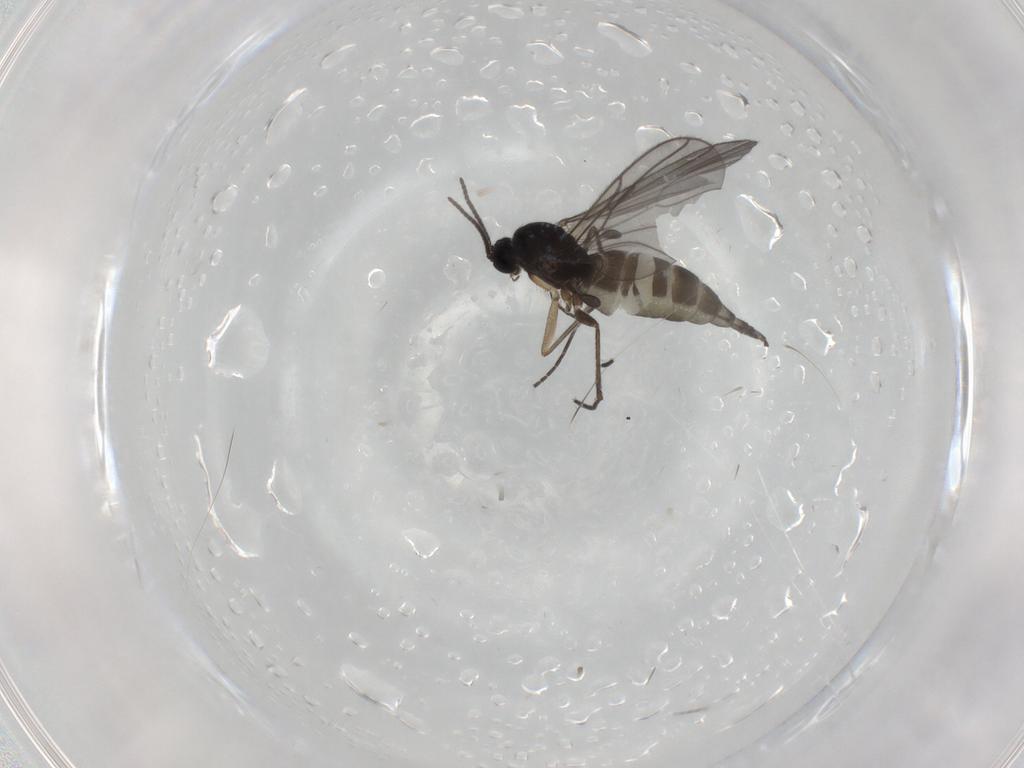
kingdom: Animalia
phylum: Arthropoda
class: Insecta
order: Diptera
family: Sciaridae
